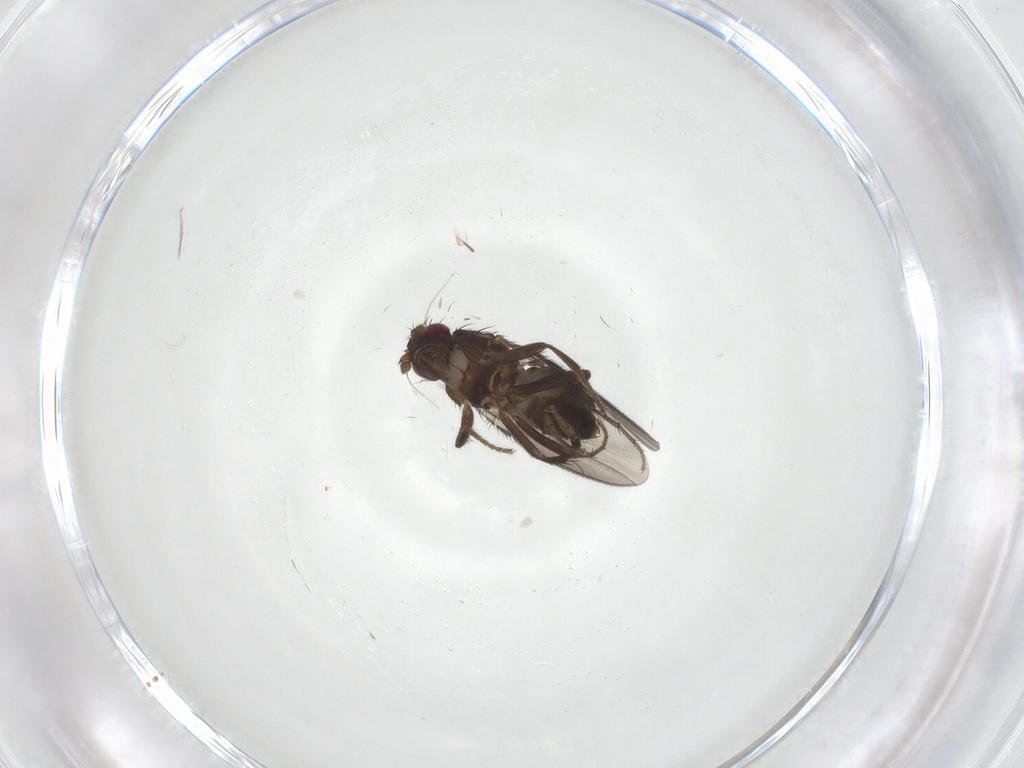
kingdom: Animalia
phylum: Arthropoda
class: Insecta
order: Diptera
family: Sphaeroceridae
